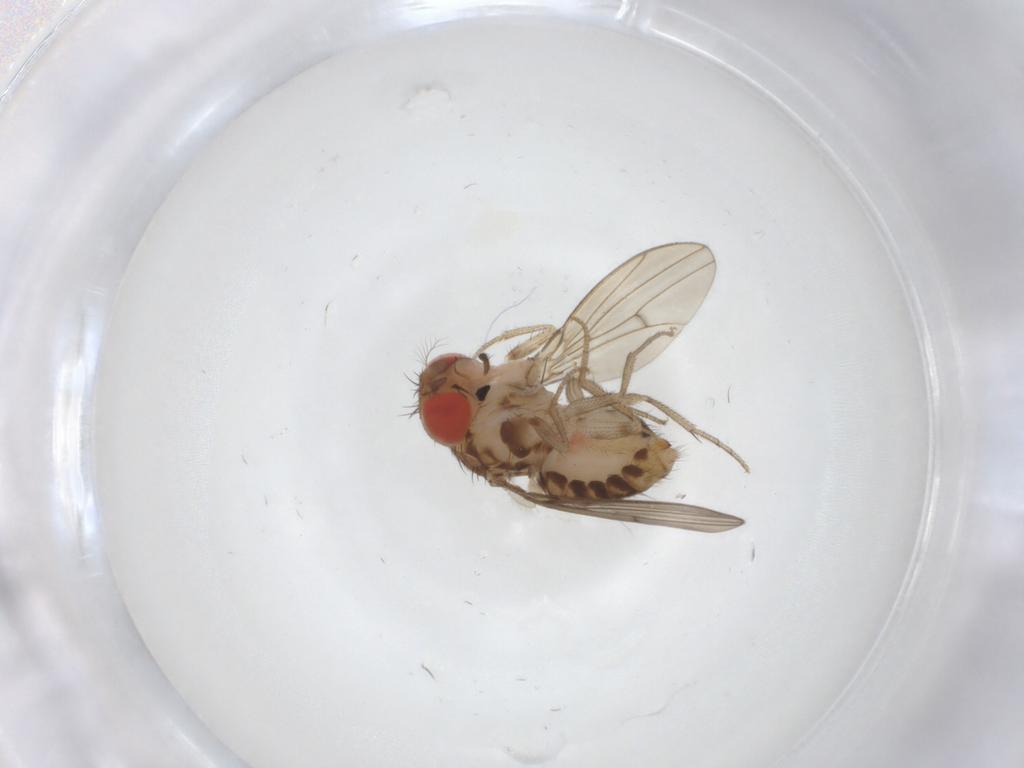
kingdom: Animalia
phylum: Arthropoda
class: Insecta
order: Diptera
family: Drosophilidae
